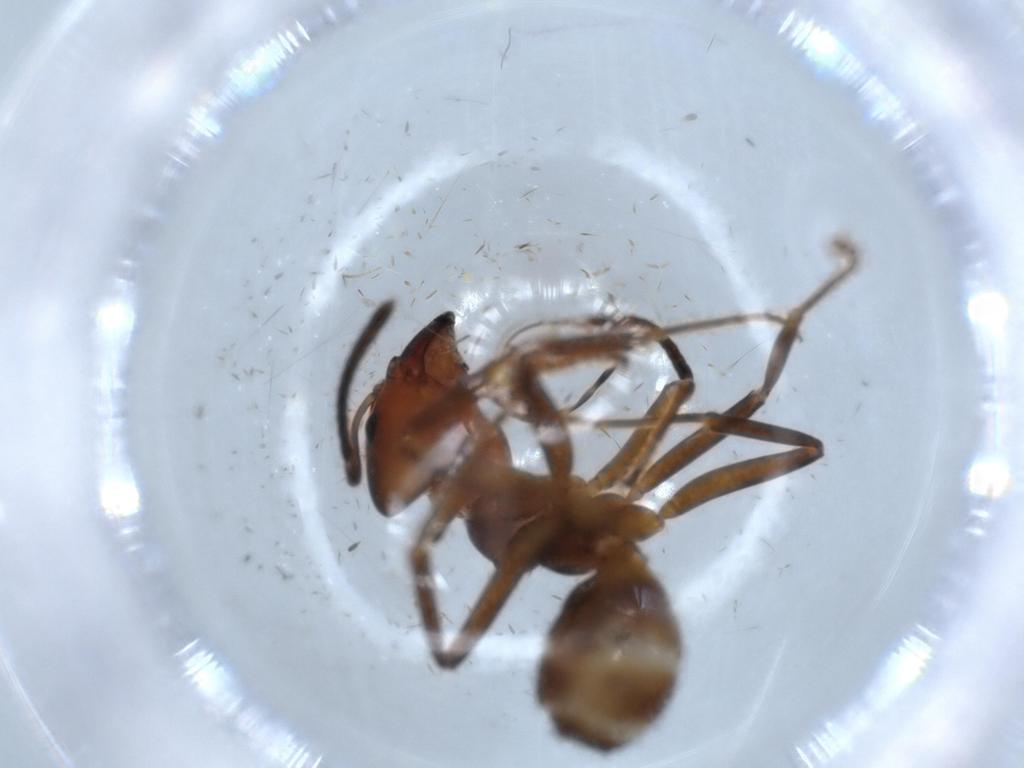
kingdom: Animalia
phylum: Arthropoda
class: Insecta
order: Hymenoptera
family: Formicidae
